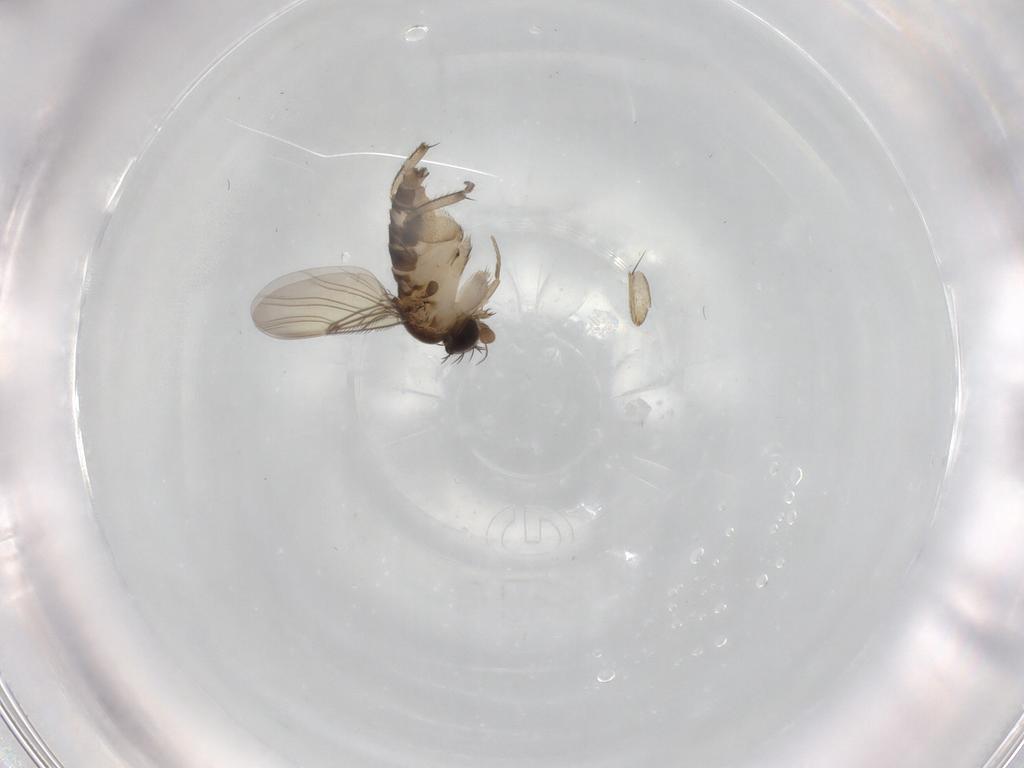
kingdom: Animalia
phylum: Arthropoda
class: Insecta
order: Diptera
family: Phoridae
